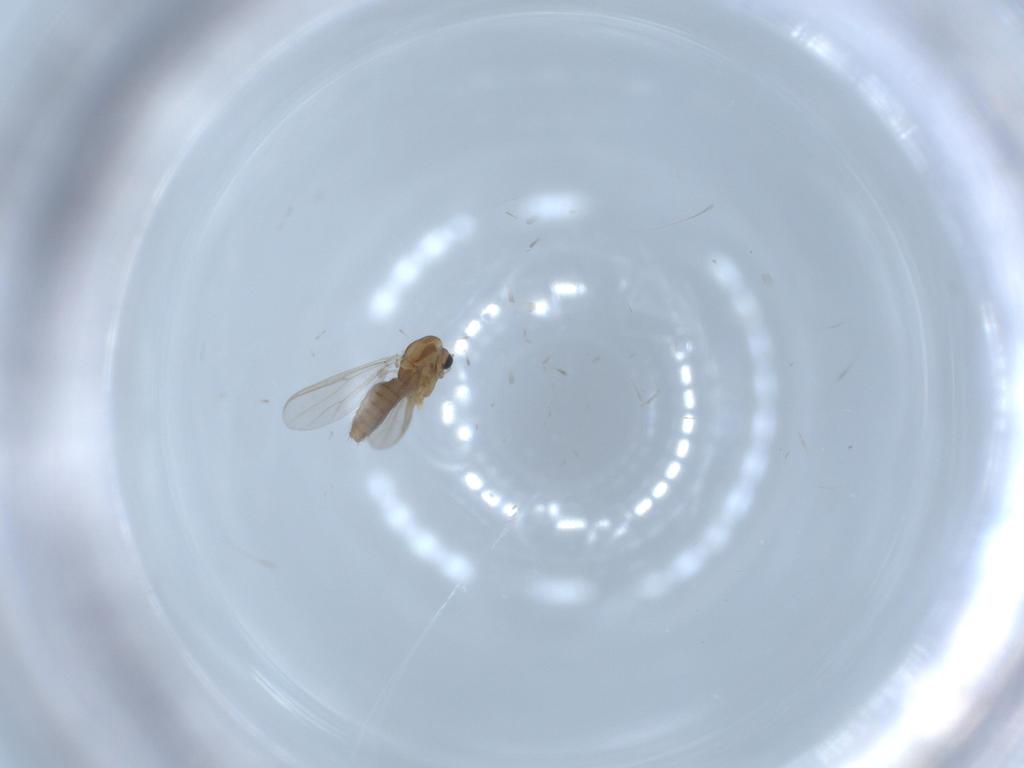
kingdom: Animalia
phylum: Arthropoda
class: Insecta
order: Diptera
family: Chironomidae
